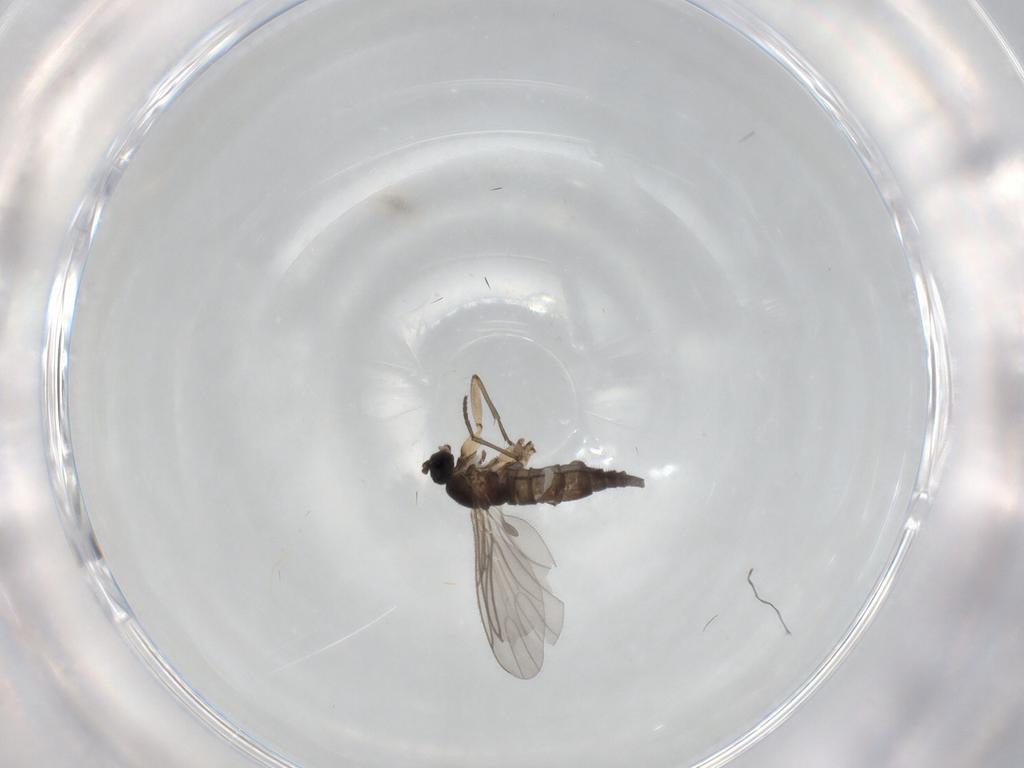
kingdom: Animalia
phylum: Arthropoda
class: Insecta
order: Diptera
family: Sciaridae
